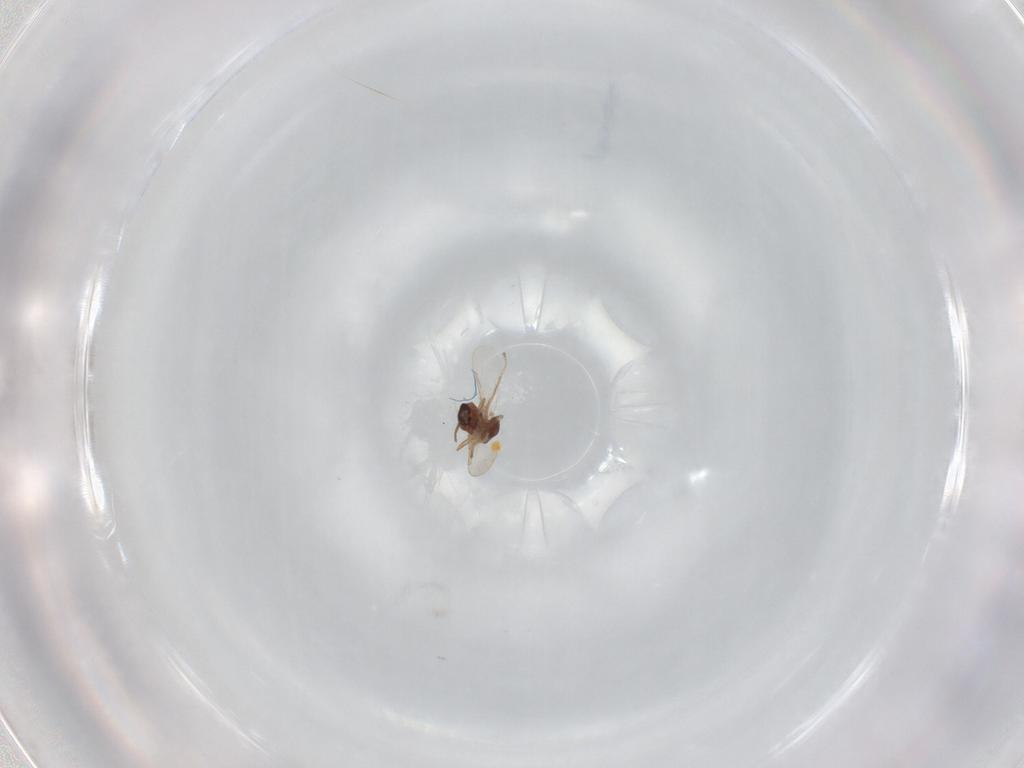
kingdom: Animalia
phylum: Arthropoda
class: Insecta
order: Diptera
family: Ceratopogonidae
